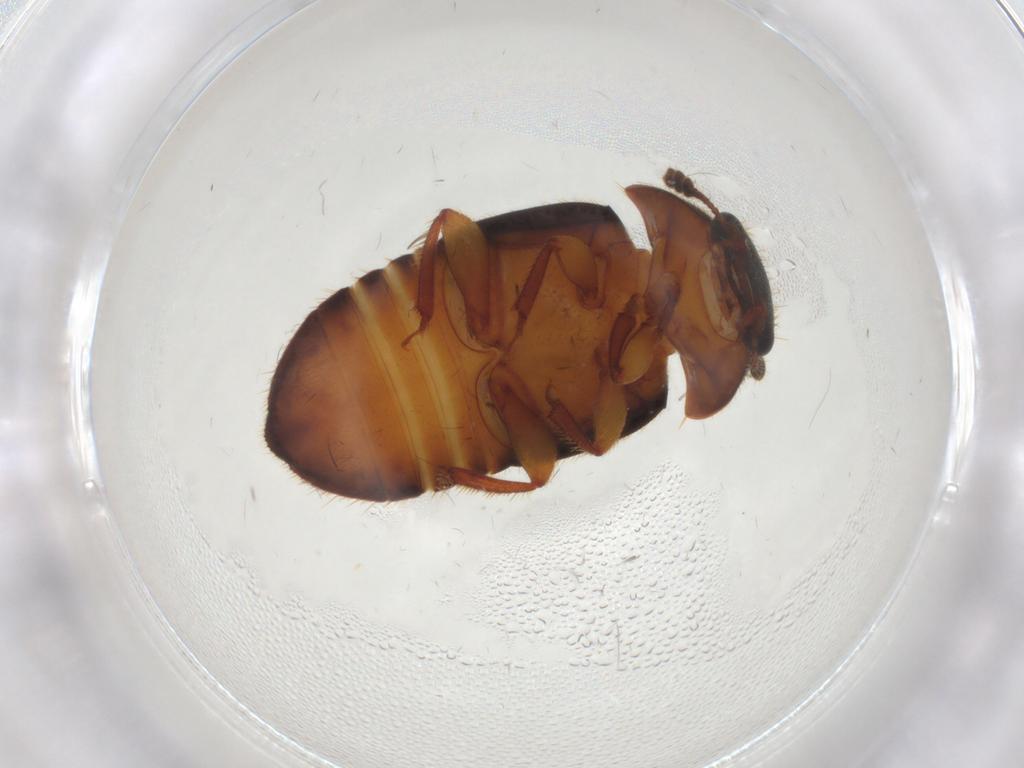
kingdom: Animalia
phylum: Arthropoda
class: Insecta
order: Coleoptera
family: Nitidulidae
